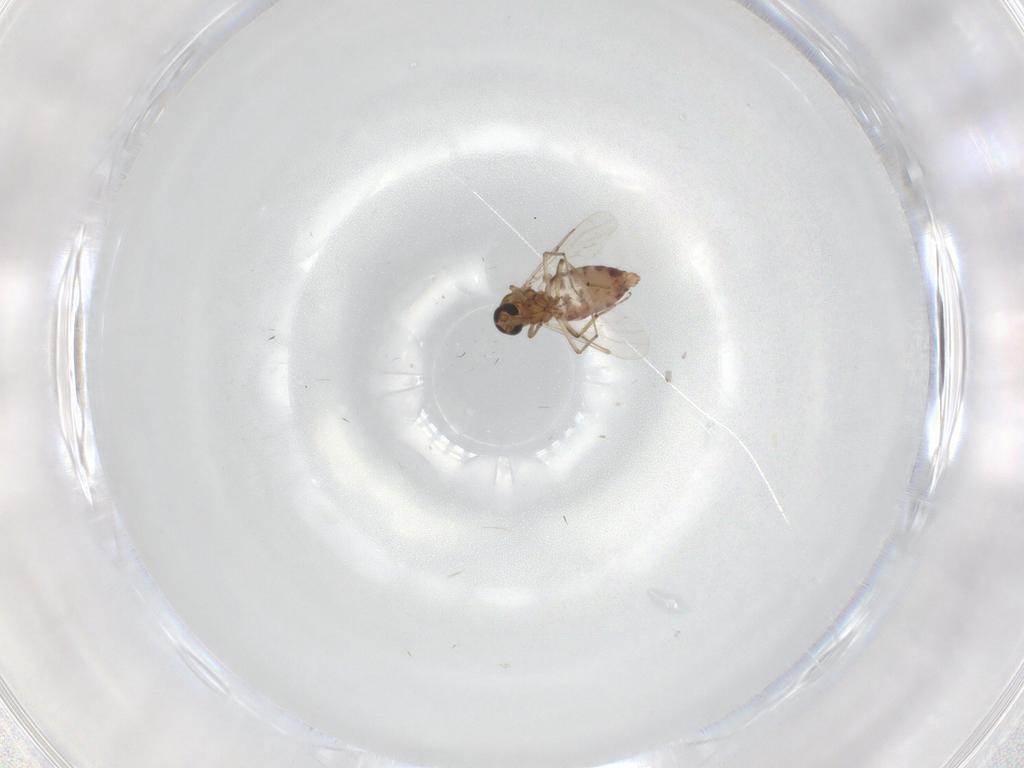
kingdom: Animalia
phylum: Arthropoda
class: Insecta
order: Diptera
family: Ceratopogonidae
